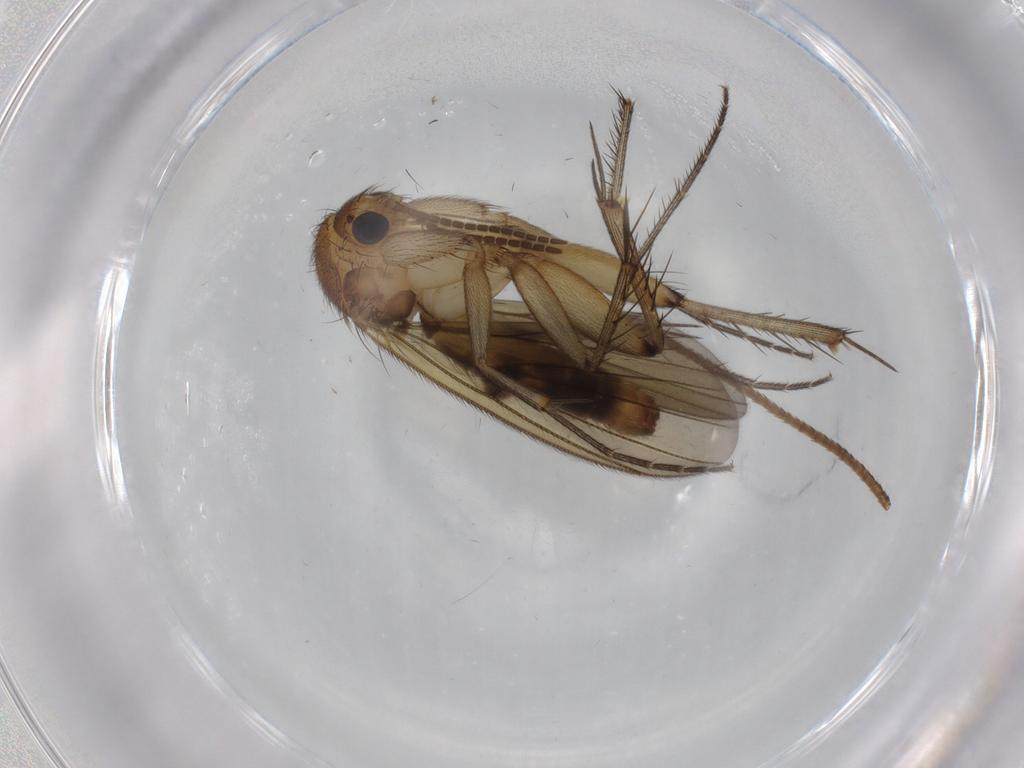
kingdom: Animalia
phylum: Arthropoda
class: Insecta
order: Diptera
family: Mycetophilidae
